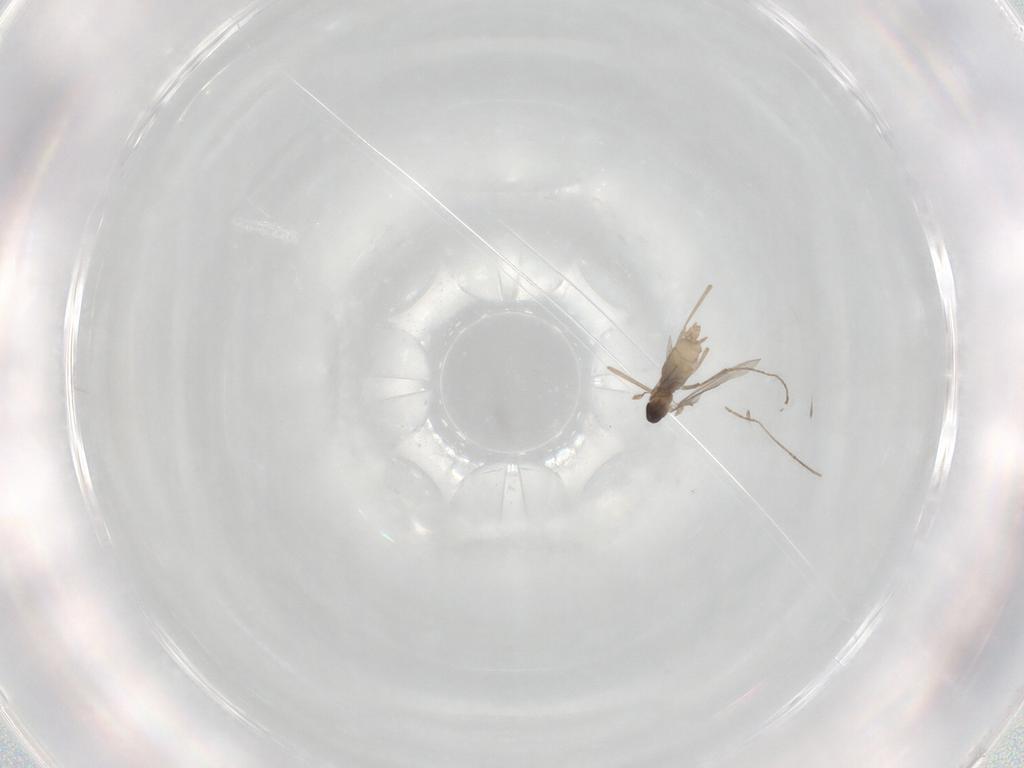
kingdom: Animalia
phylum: Arthropoda
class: Insecta
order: Diptera
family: Cecidomyiidae
